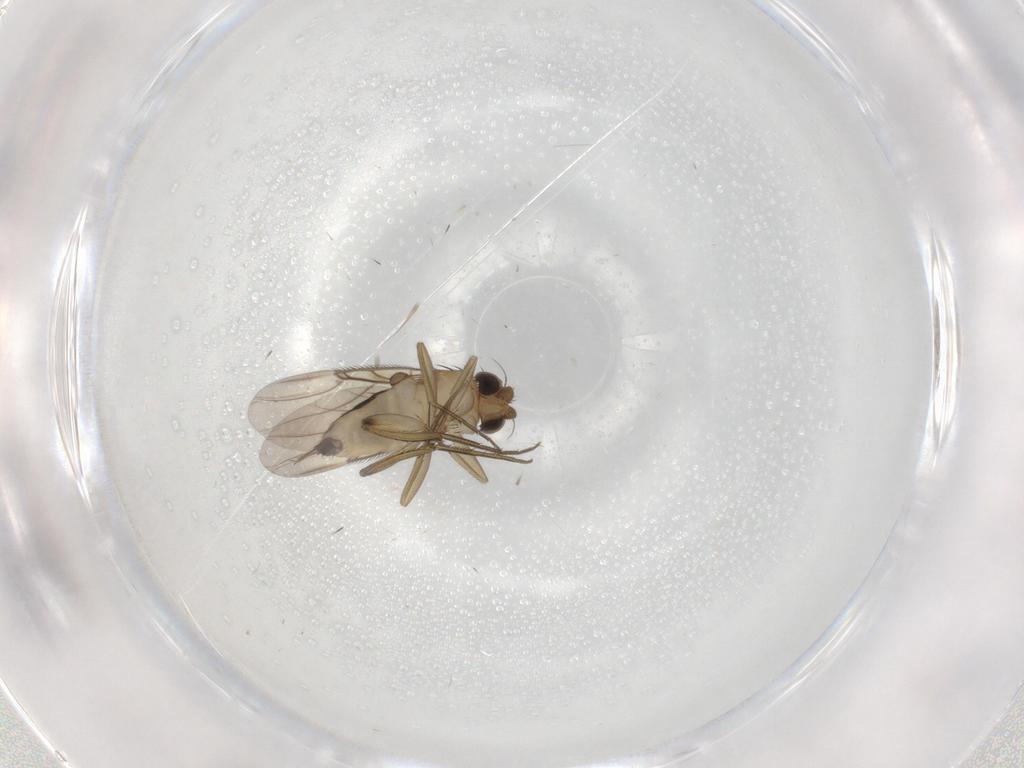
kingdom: Animalia
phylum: Arthropoda
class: Insecta
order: Diptera
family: Phoridae
